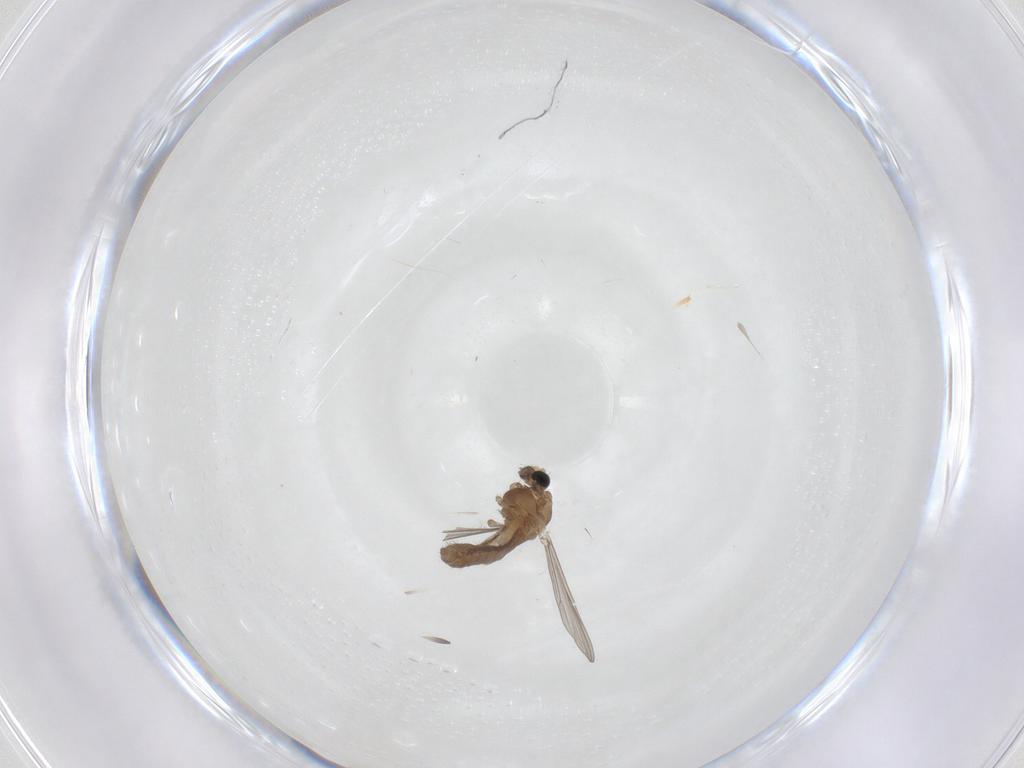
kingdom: Animalia
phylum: Arthropoda
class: Insecta
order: Diptera
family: Chironomidae
